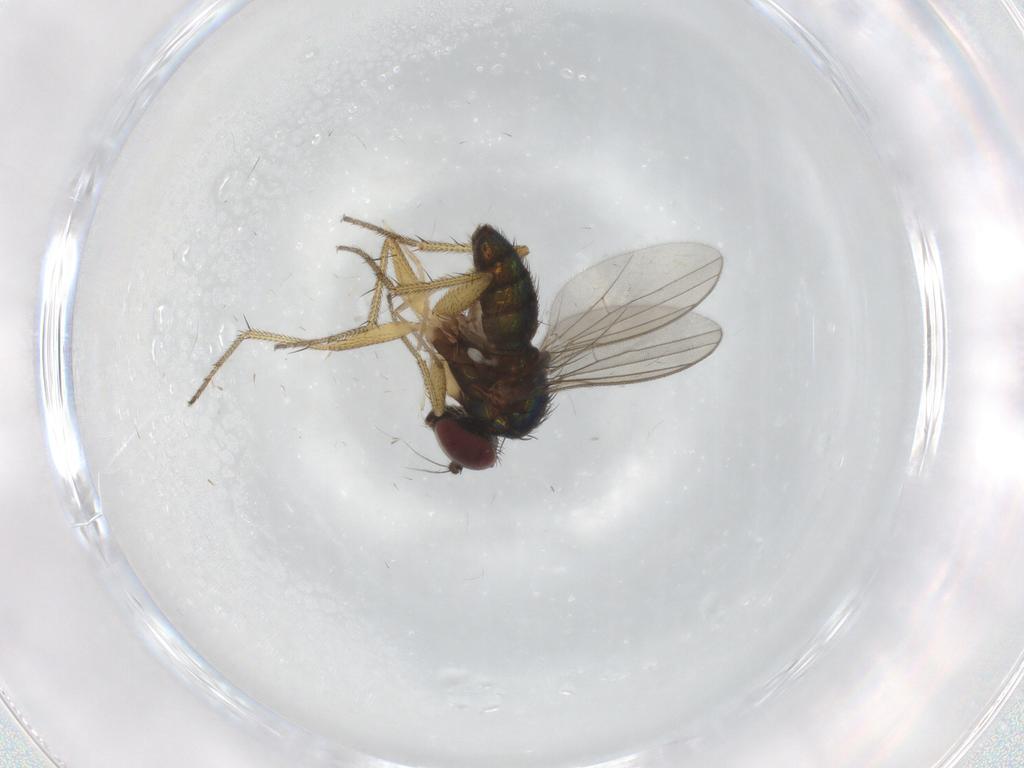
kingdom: Animalia
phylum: Arthropoda
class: Insecta
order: Diptera
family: Dolichopodidae
